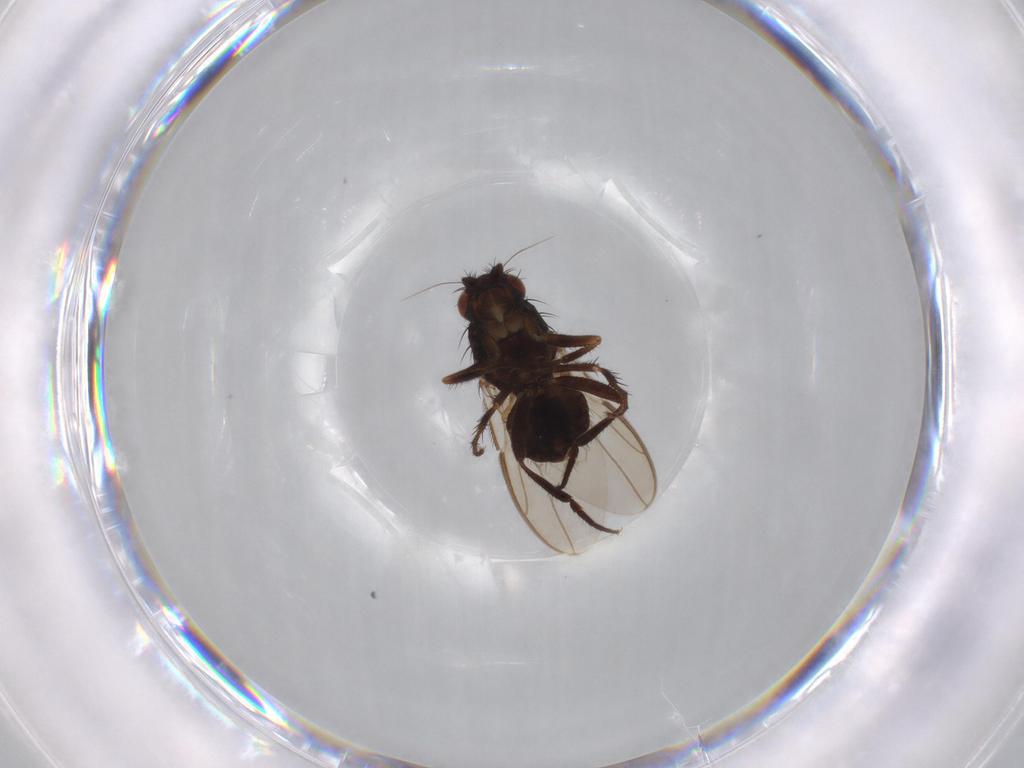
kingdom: Animalia
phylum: Arthropoda
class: Insecta
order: Diptera
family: Sphaeroceridae
